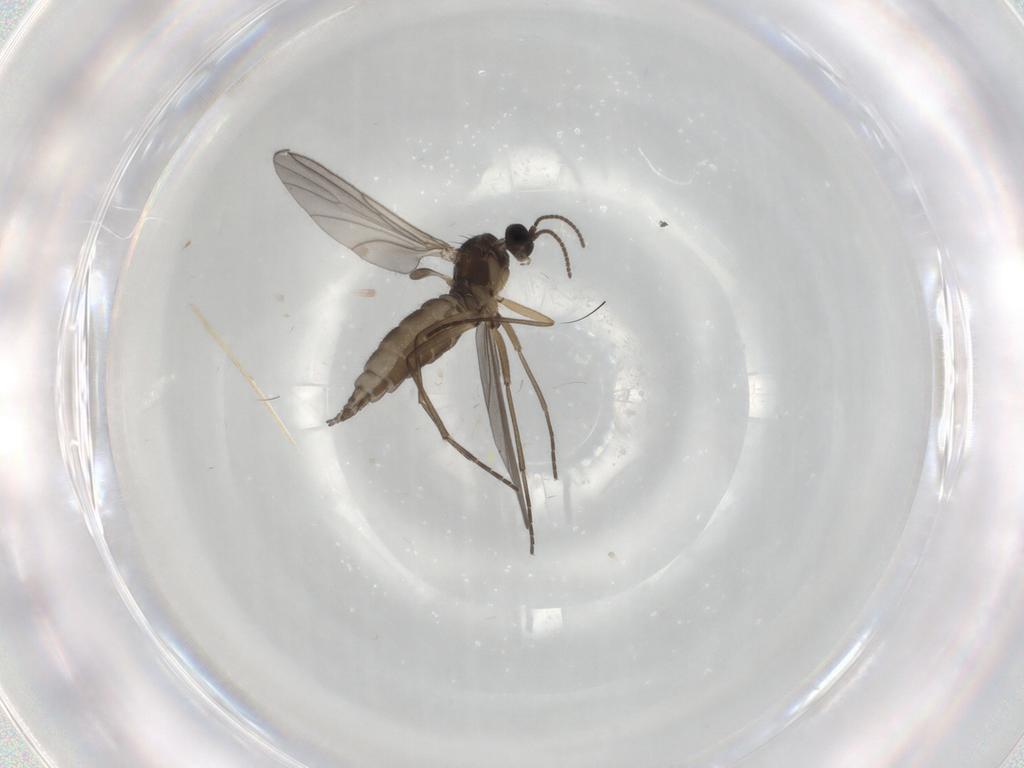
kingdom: Animalia
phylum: Arthropoda
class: Insecta
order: Diptera
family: Sciaridae
